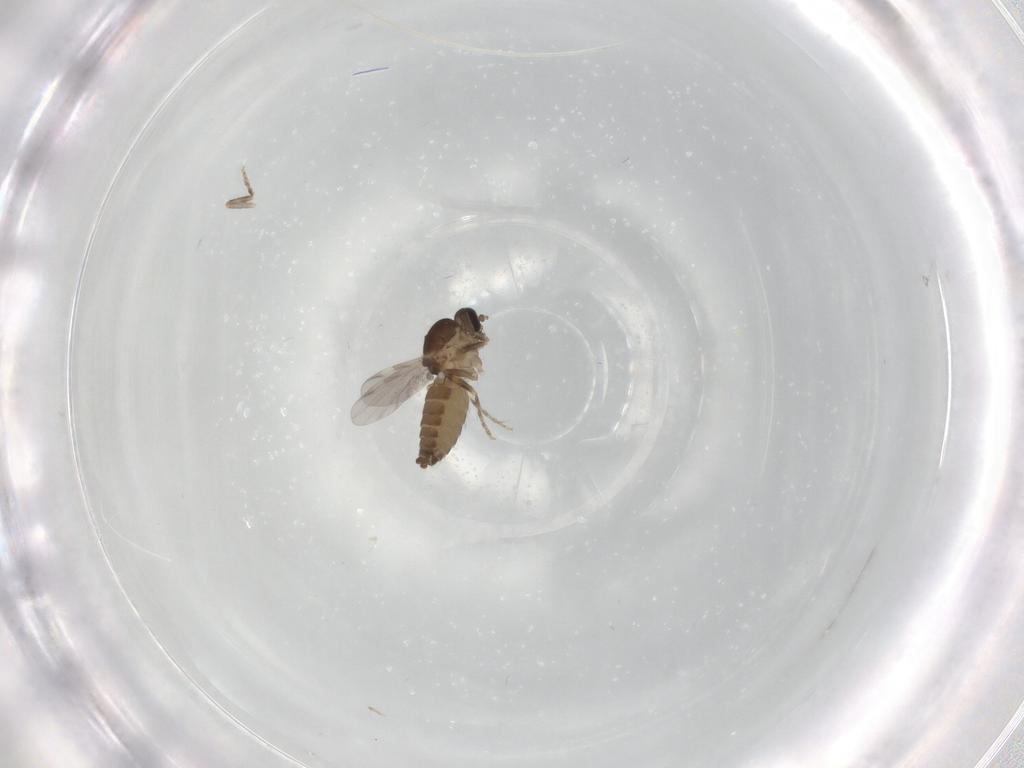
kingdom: Animalia
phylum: Arthropoda
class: Insecta
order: Diptera
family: Ceratopogonidae
